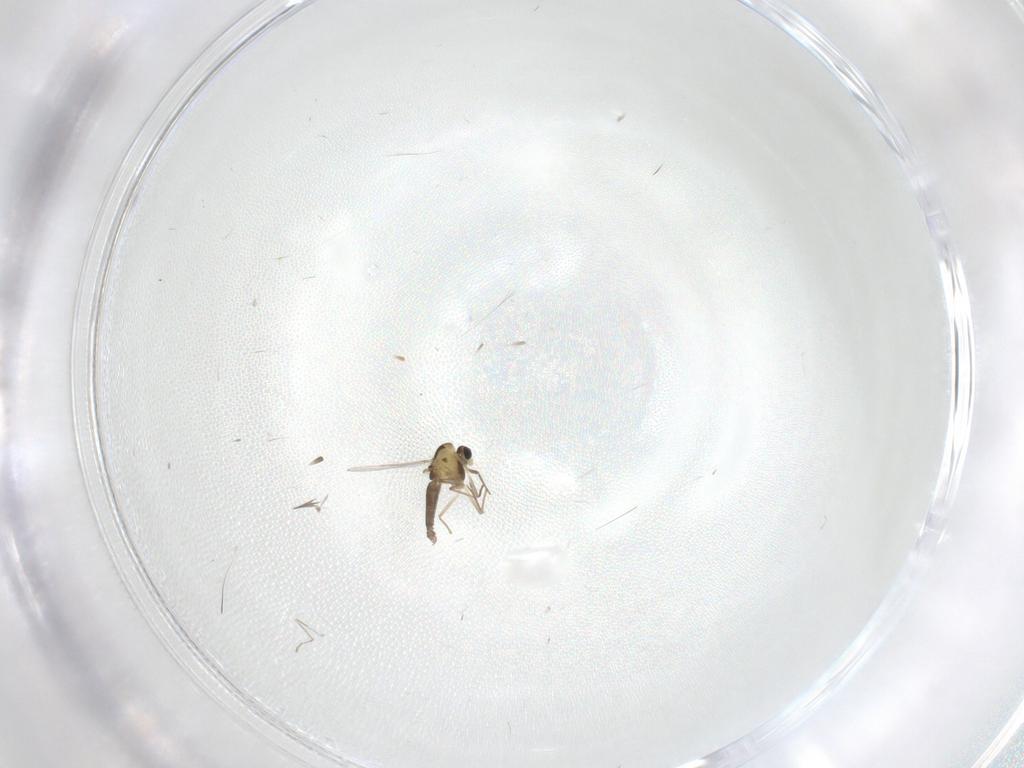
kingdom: Animalia
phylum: Arthropoda
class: Insecta
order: Diptera
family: Chironomidae
